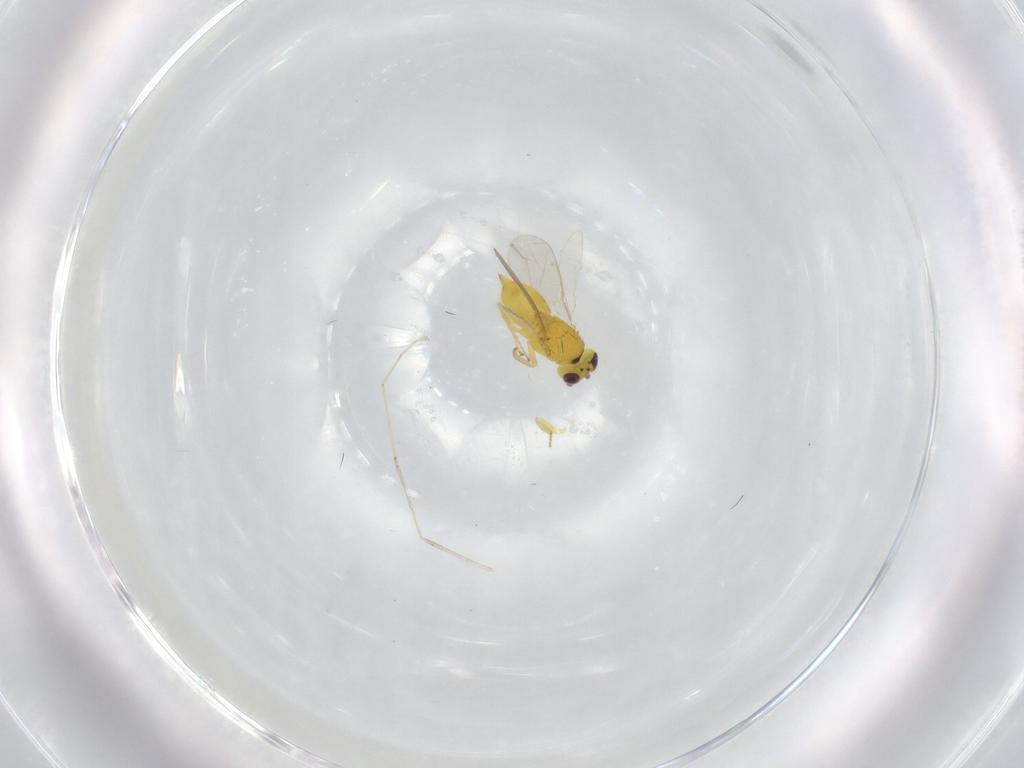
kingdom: Animalia
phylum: Arthropoda
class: Insecta
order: Hymenoptera
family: Aphelinidae
